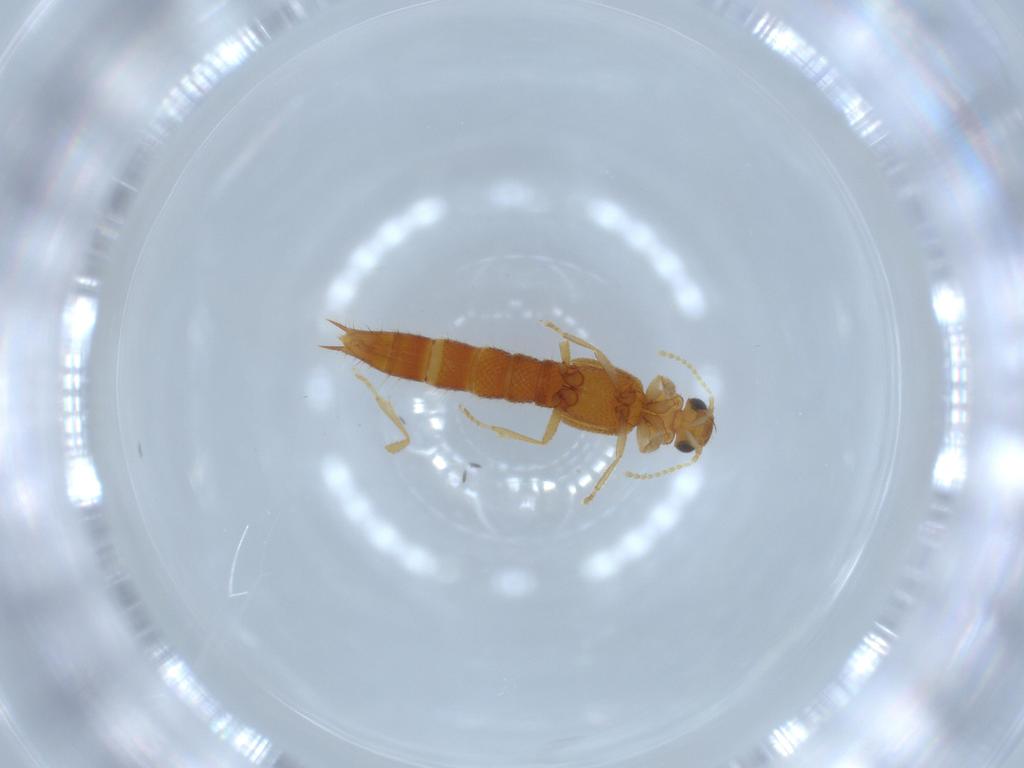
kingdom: Animalia
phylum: Arthropoda
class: Insecta
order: Coleoptera
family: Staphylinidae
